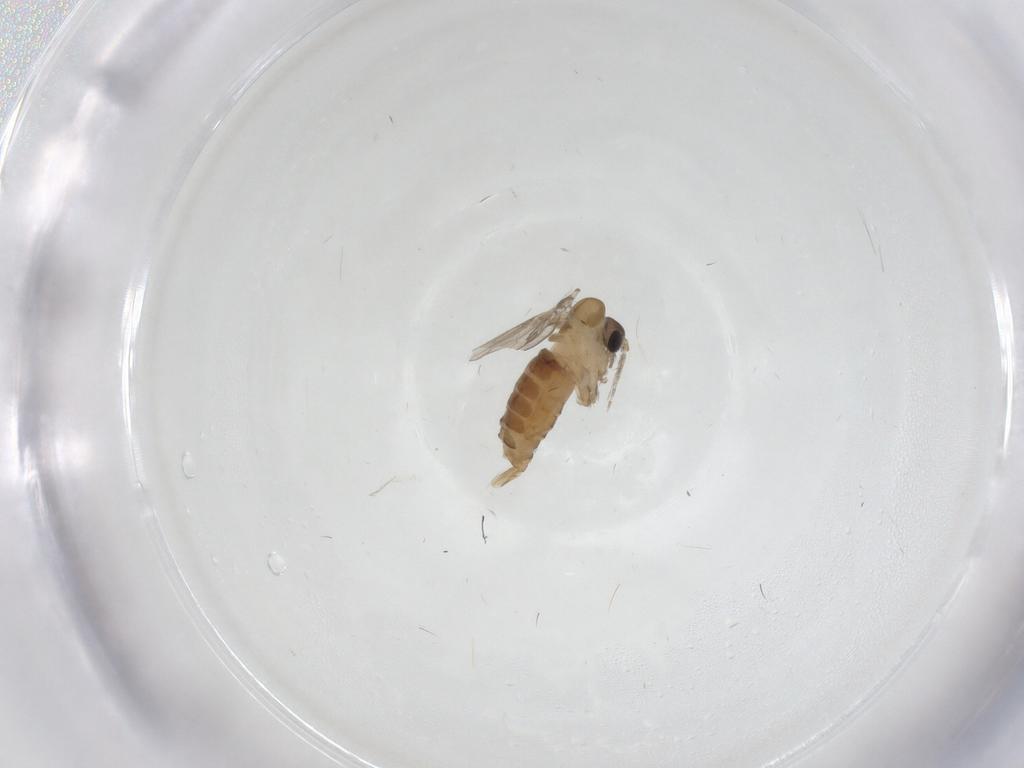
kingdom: Animalia
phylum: Arthropoda
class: Insecta
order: Diptera
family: Psychodidae
